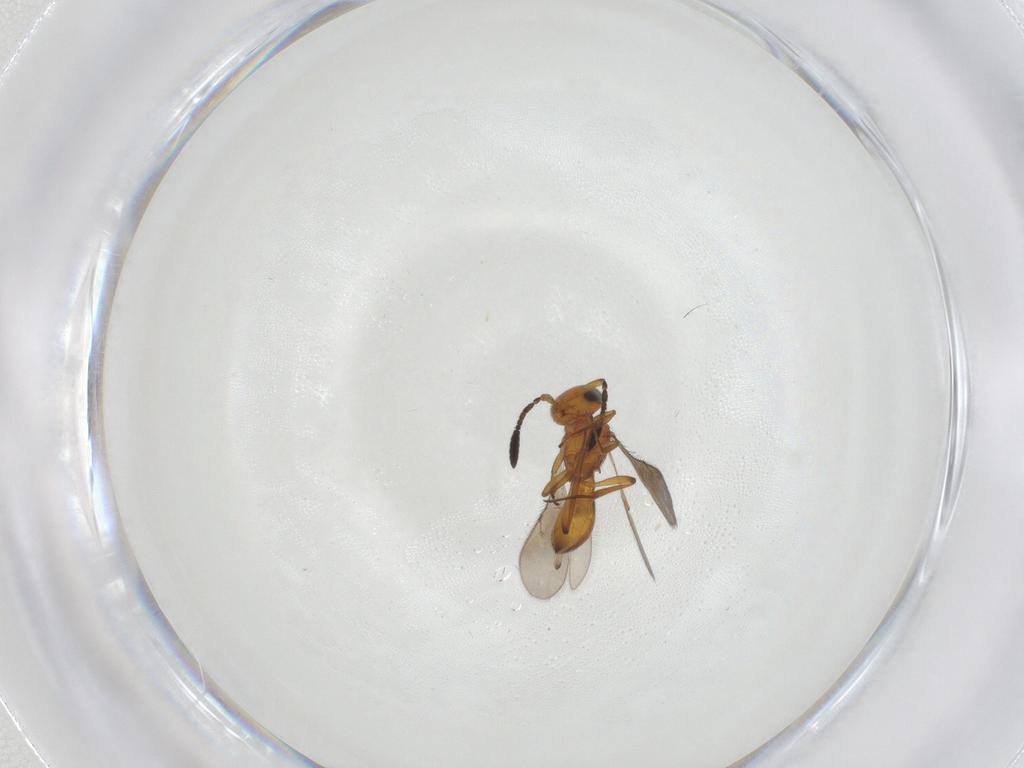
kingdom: Animalia
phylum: Arthropoda
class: Insecta
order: Hymenoptera
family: Scelionidae
